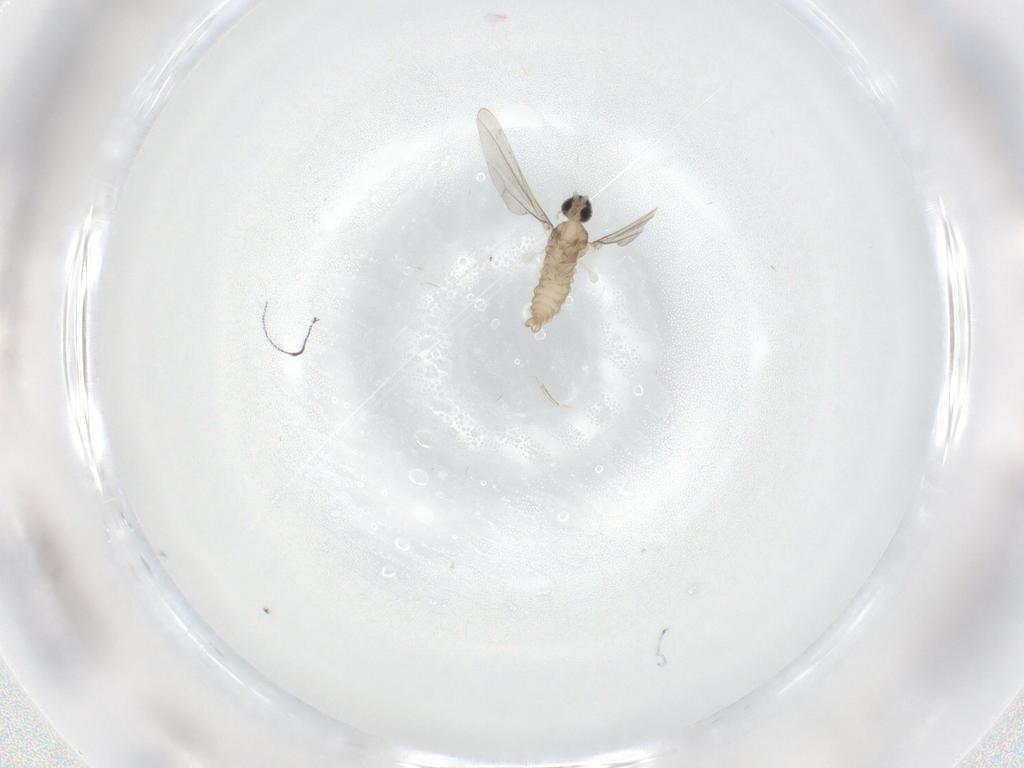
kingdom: Animalia
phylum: Arthropoda
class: Insecta
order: Diptera
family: Cecidomyiidae
